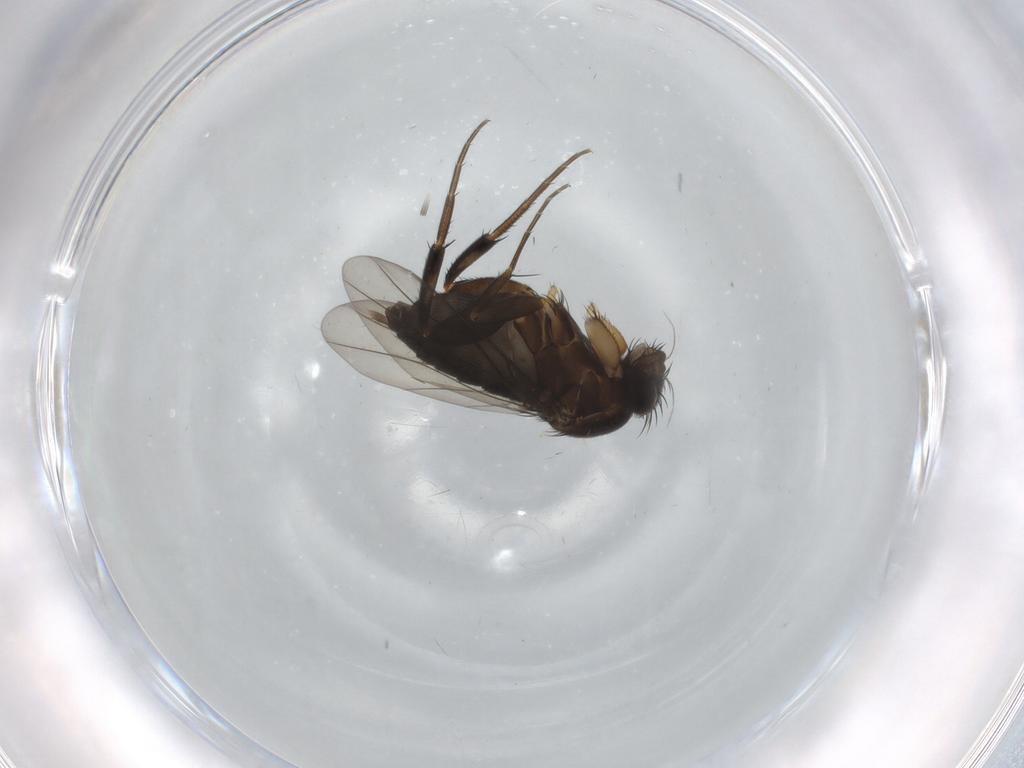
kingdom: Animalia
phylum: Arthropoda
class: Insecta
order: Diptera
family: Phoridae
